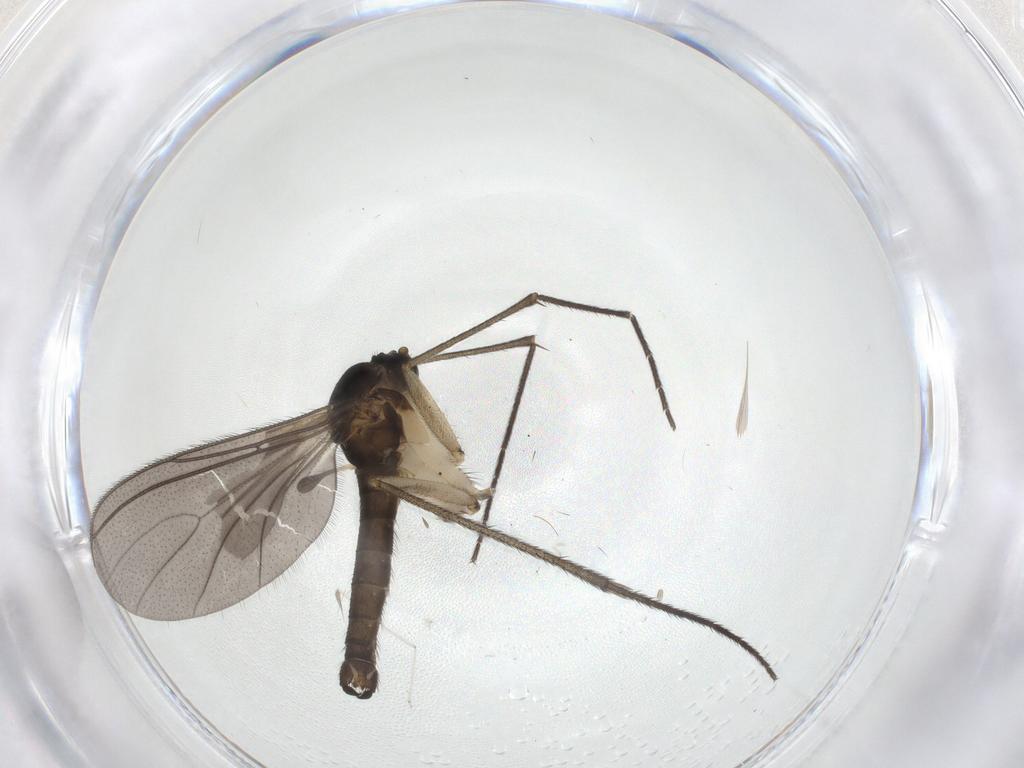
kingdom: Animalia
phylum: Arthropoda
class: Insecta
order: Diptera
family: Sciaridae
